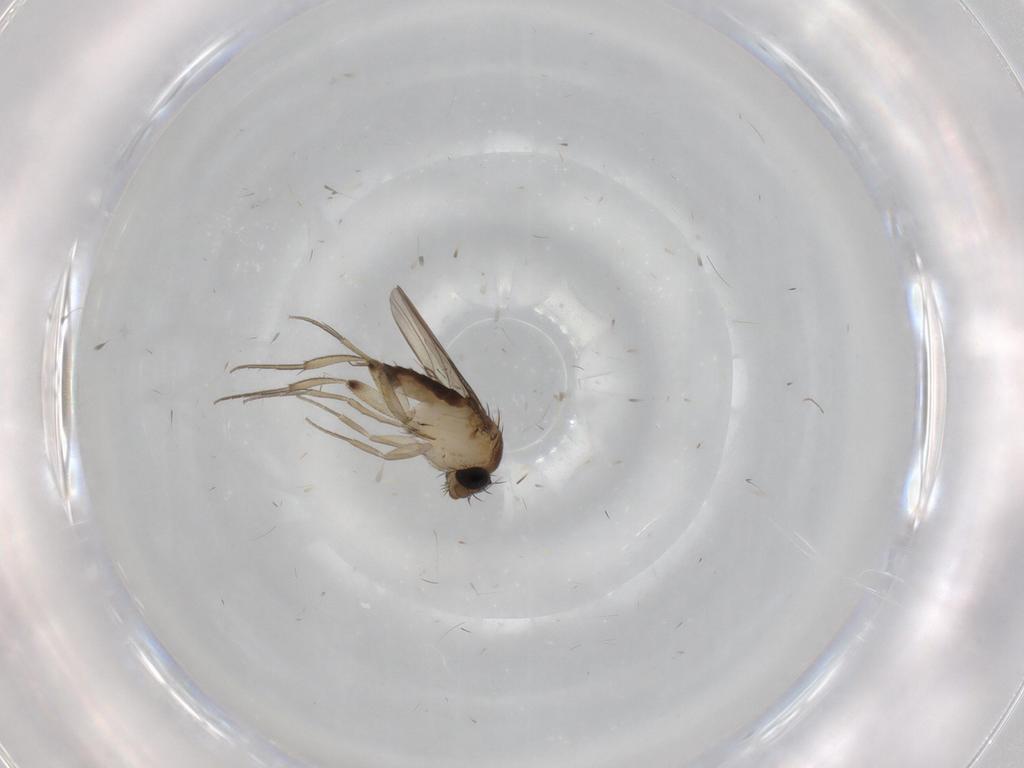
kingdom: Animalia
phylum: Arthropoda
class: Insecta
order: Diptera
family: Phoridae
